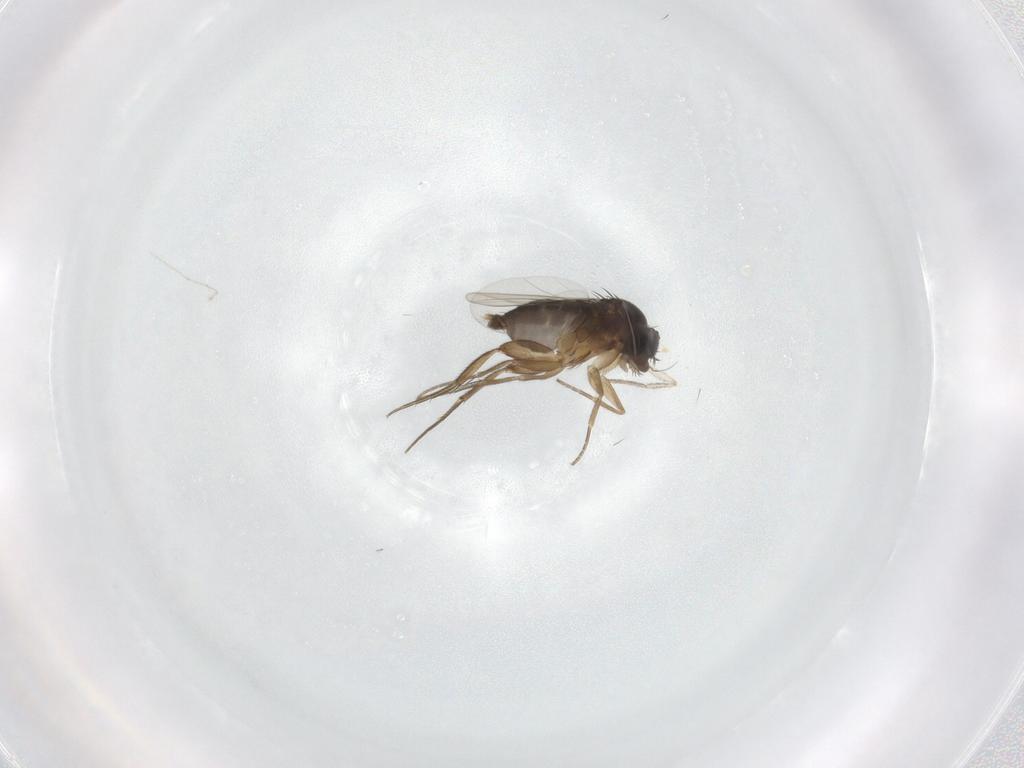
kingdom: Animalia
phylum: Arthropoda
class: Insecta
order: Diptera
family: Phoridae
